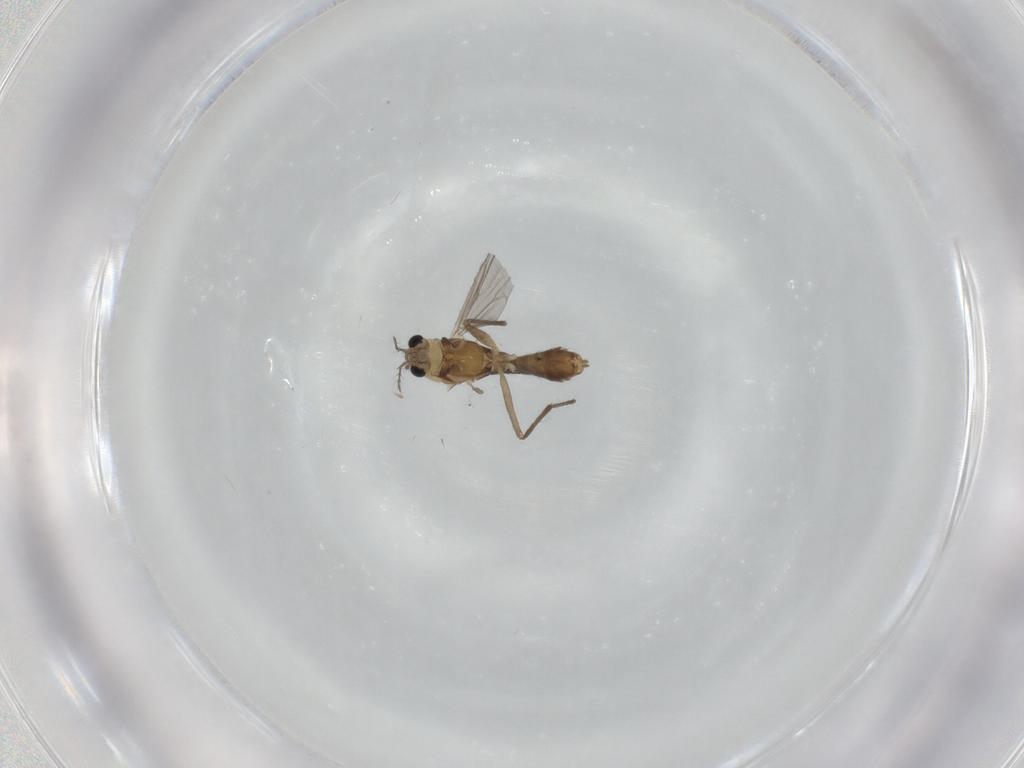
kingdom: Animalia
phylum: Arthropoda
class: Insecta
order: Diptera
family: Chironomidae
